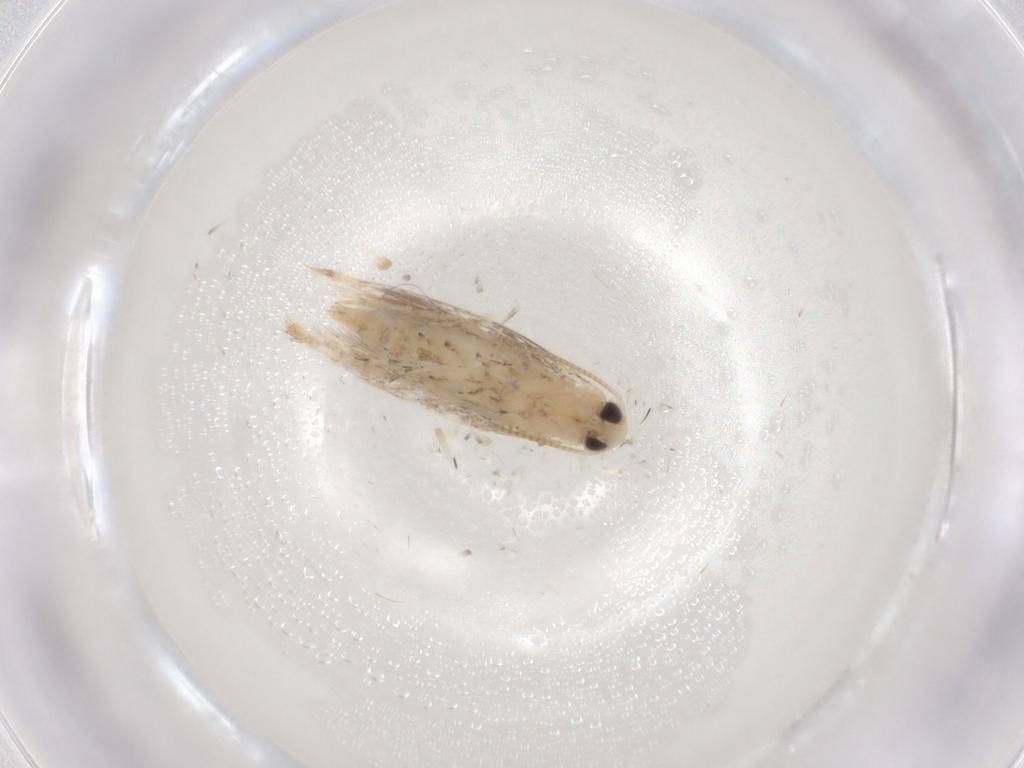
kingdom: Animalia
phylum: Arthropoda
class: Insecta
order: Lepidoptera
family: Gracillariidae
